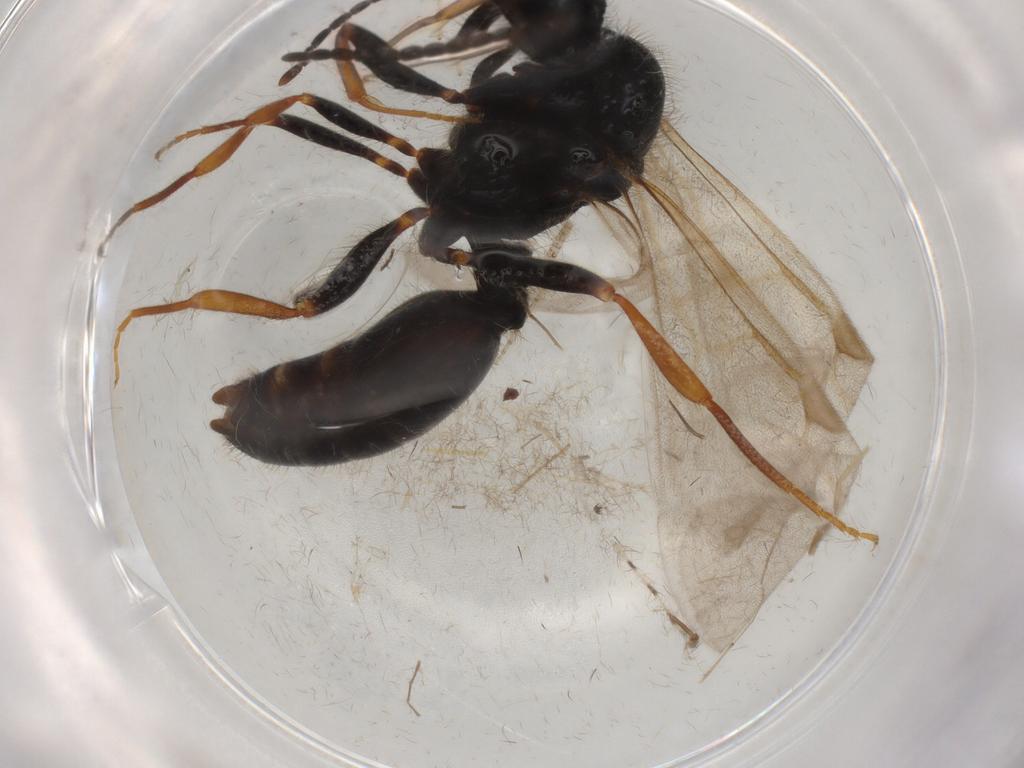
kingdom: Animalia
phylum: Arthropoda
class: Insecta
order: Hymenoptera
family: Formicidae
